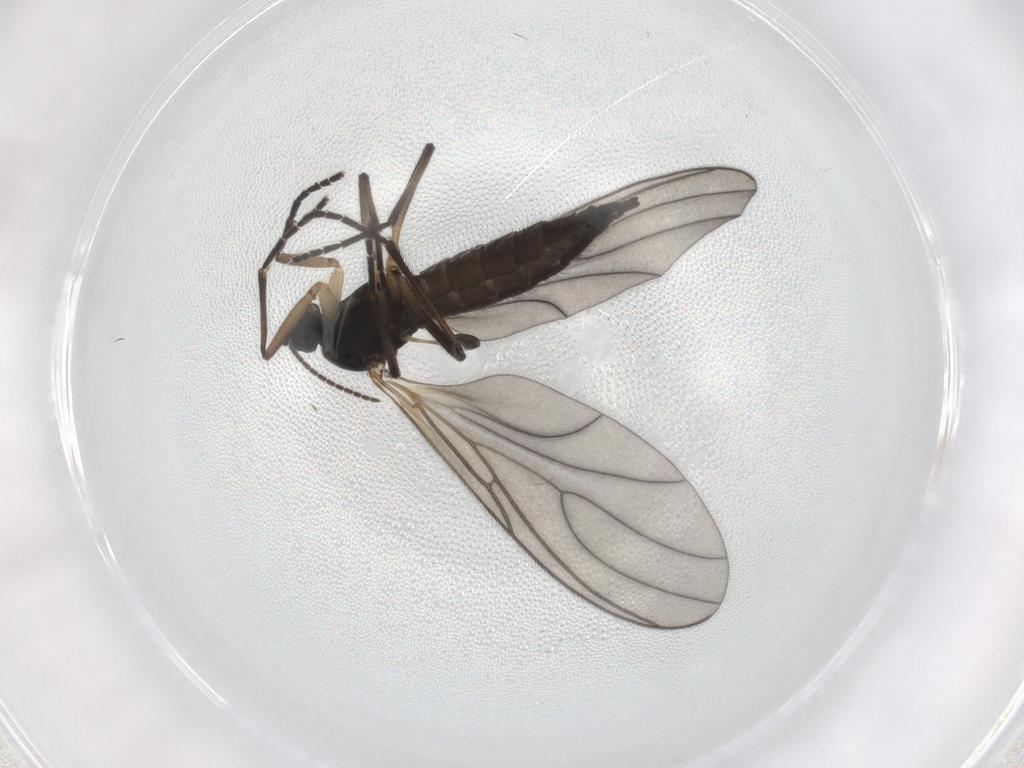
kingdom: Animalia
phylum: Arthropoda
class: Insecta
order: Diptera
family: Sciaridae
